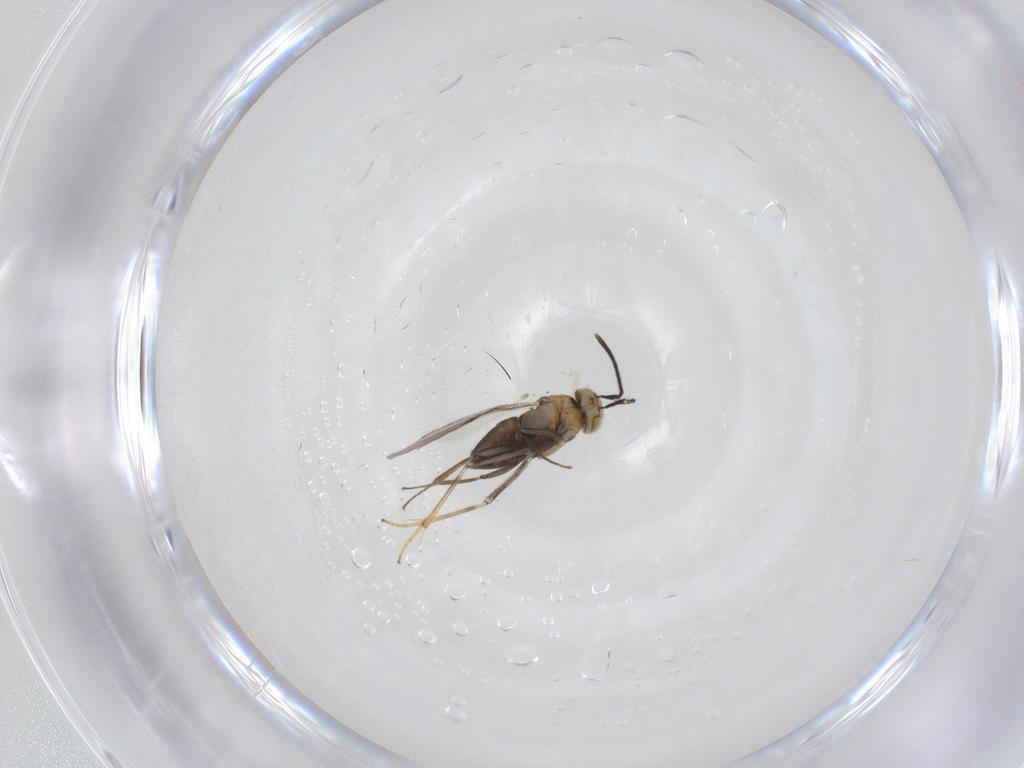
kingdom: Animalia
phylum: Arthropoda
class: Insecta
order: Hymenoptera
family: Encyrtidae
